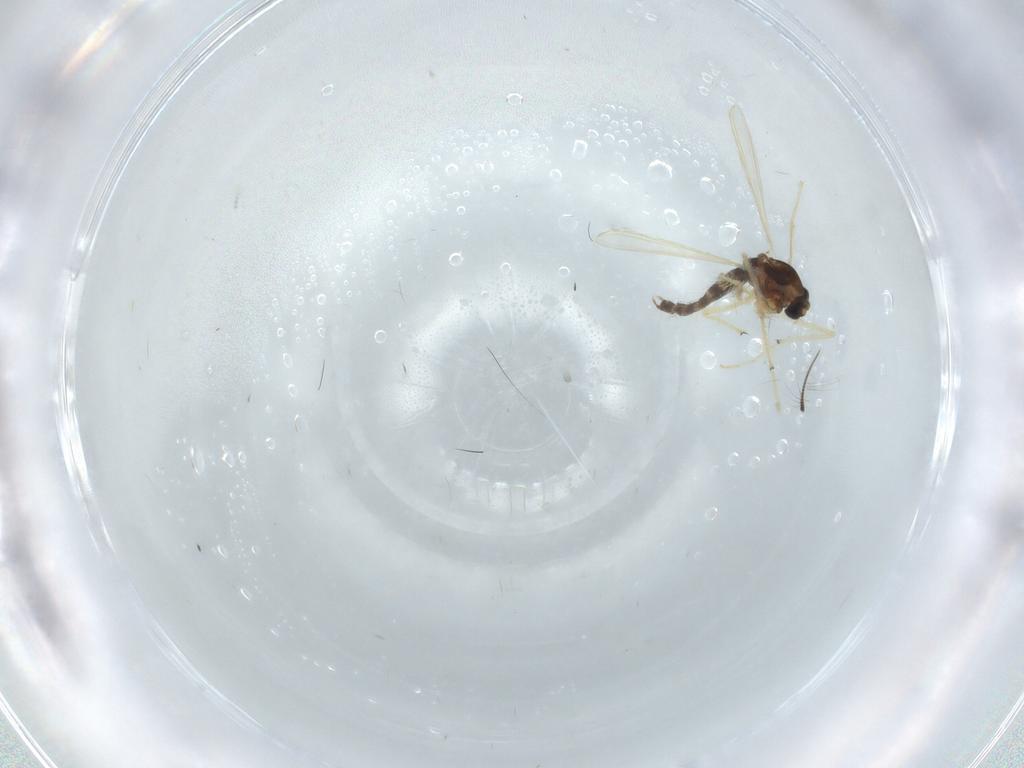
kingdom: Animalia
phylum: Arthropoda
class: Insecta
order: Diptera
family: Chironomidae
